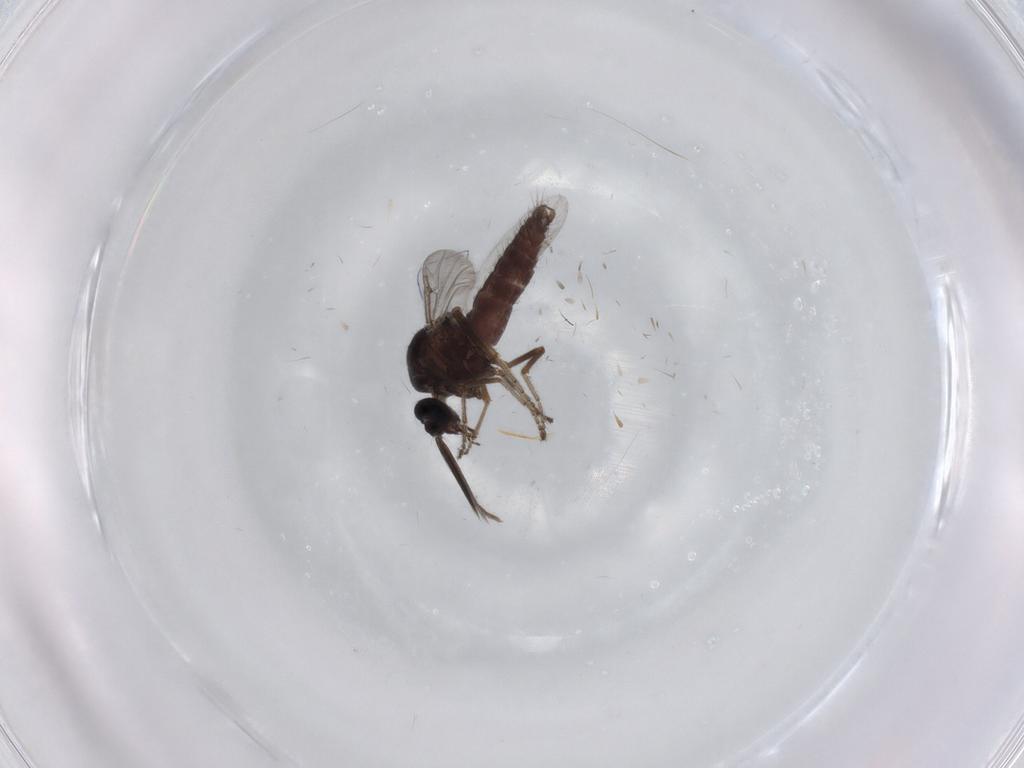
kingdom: Animalia
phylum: Arthropoda
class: Insecta
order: Diptera
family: Ceratopogonidae
